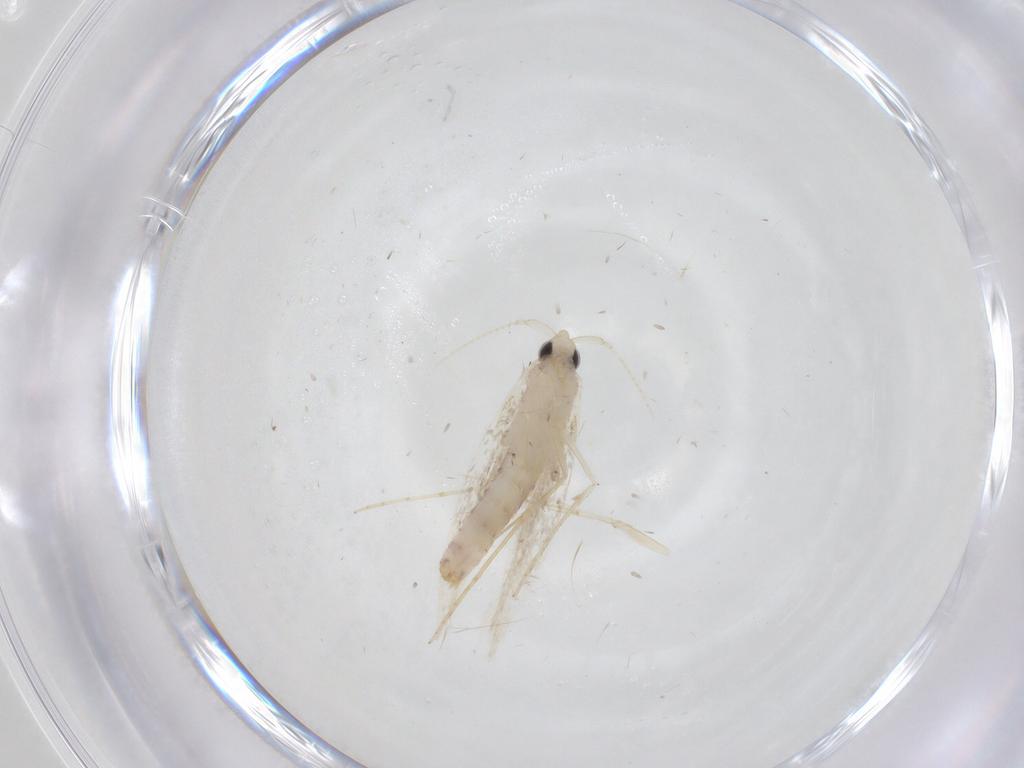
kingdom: Animalia
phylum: Arthropoda
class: Insecta
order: Lepidoptera
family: Tineidae
